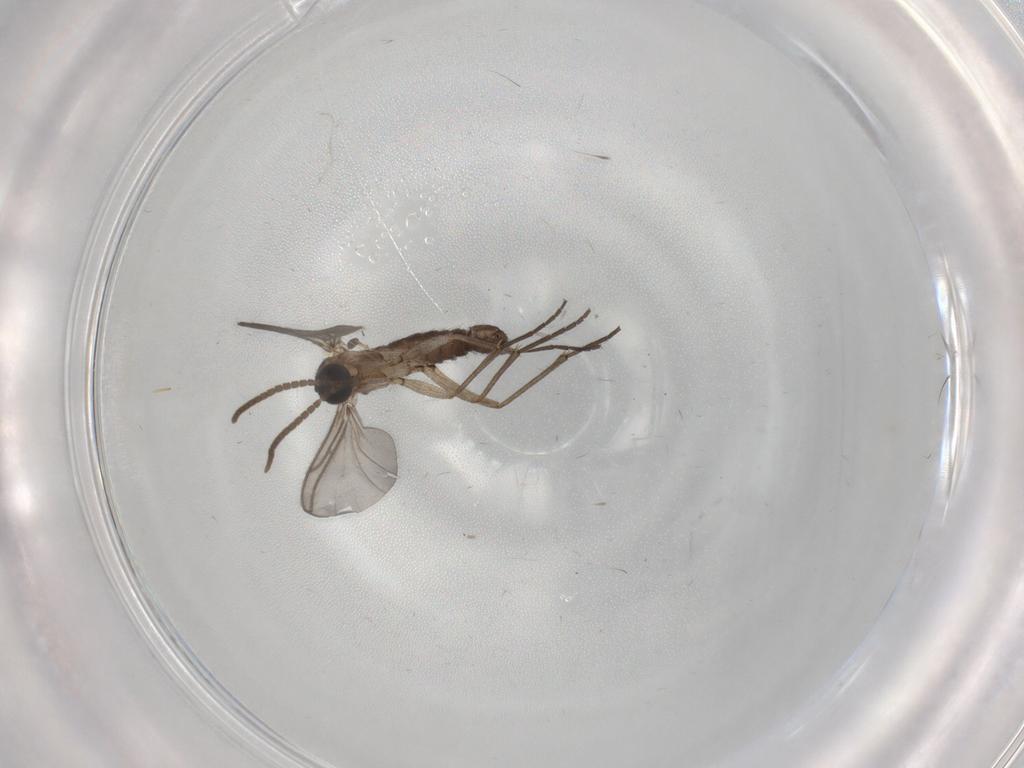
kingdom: Animalia
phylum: Arthropoda
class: Insecta
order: Diptera
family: Cecidomyiidae
